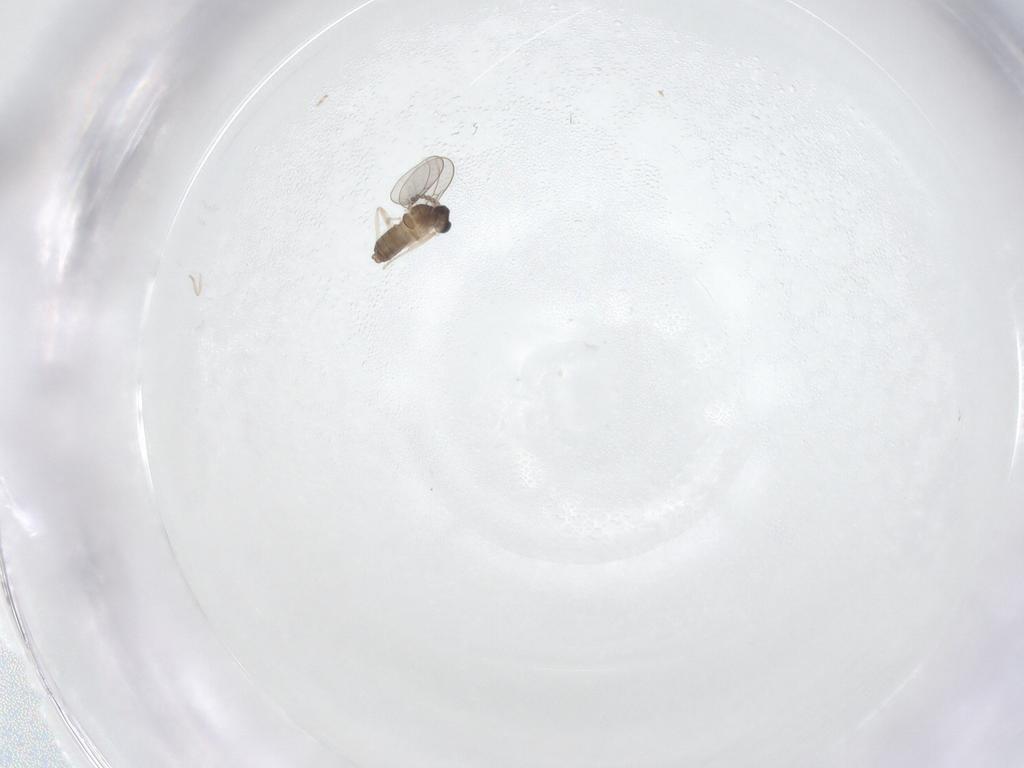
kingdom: Animalia
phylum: Arthropoda
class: Insecta
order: Diptera
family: Cecidomyiidae
